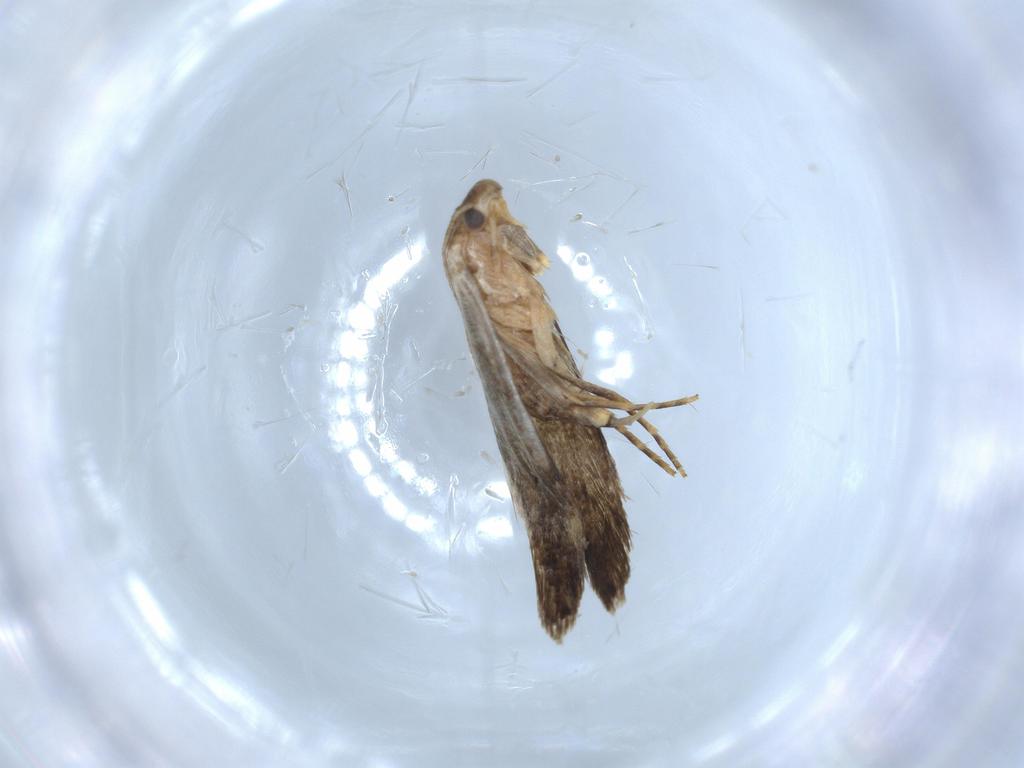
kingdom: Animalia
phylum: Arthropoda
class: Insecta
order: Lepidoptera
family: Tineidae
